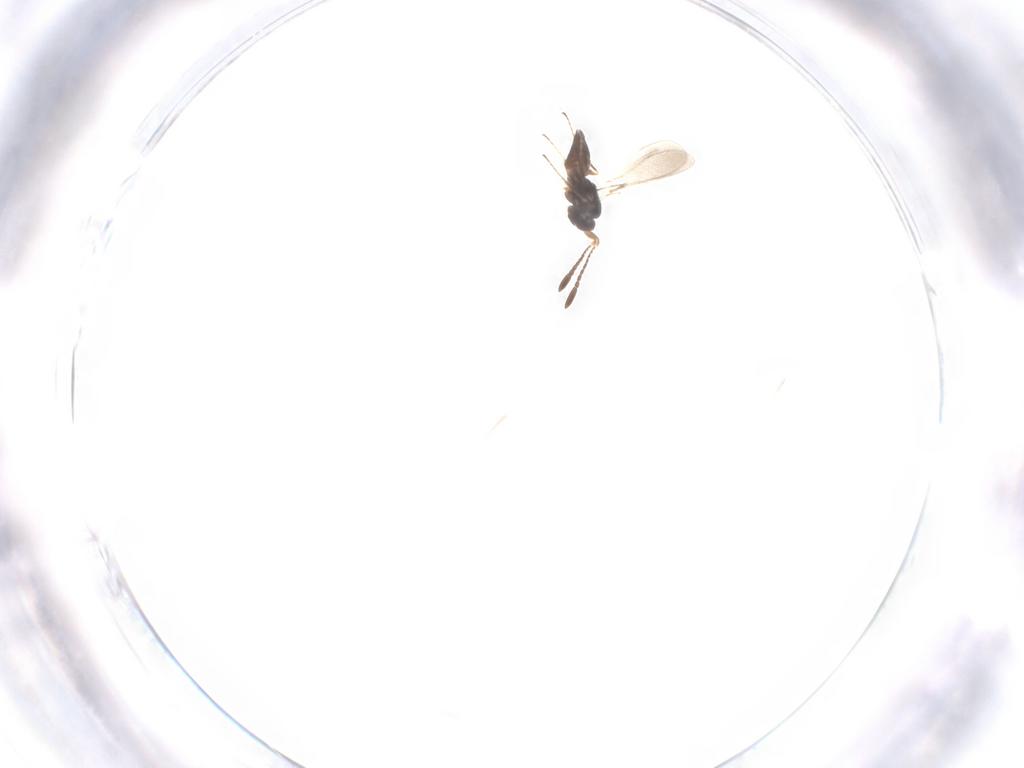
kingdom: Animalia
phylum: Arthropoda
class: Insecta
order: Hymenoptera
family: Mymaridae
